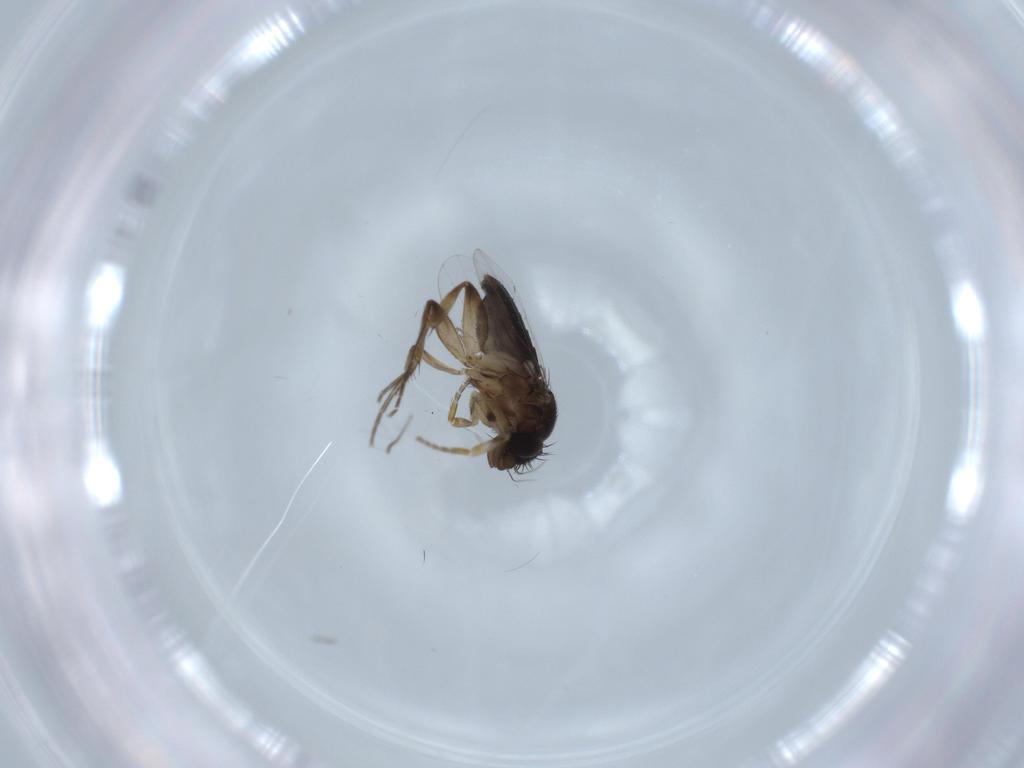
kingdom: Animalia
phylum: Arthropoda
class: Insecta
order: Diptera
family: Phoridae
